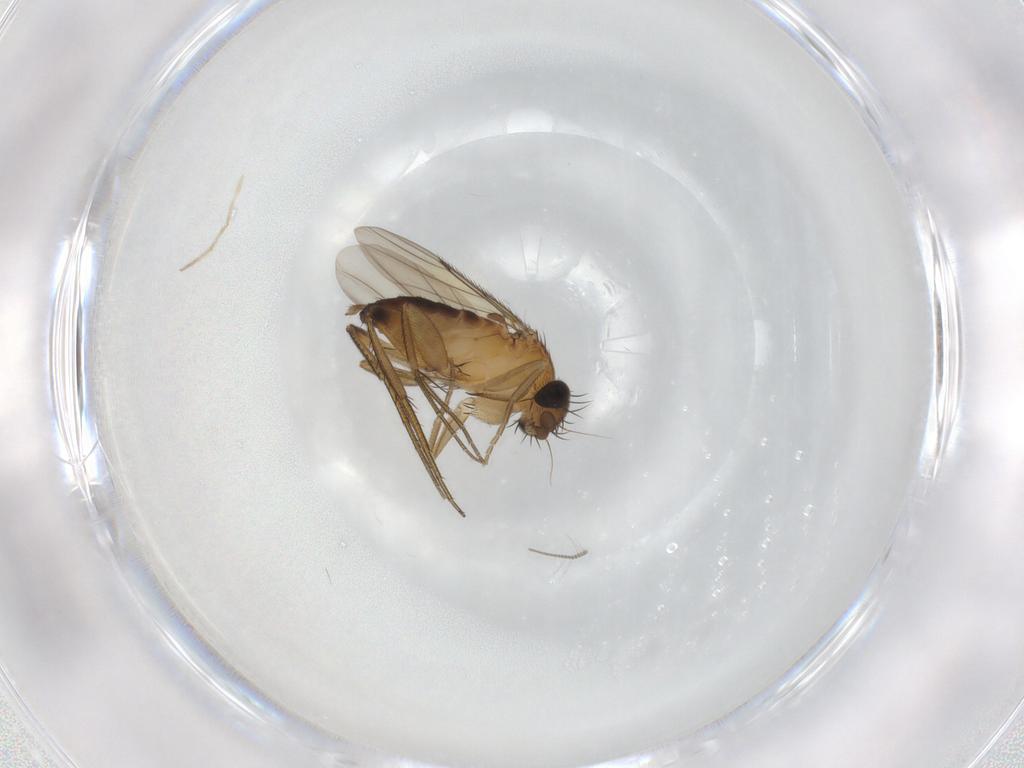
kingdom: Animalia
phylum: Arthropoda
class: Insecta
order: Diptera
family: Phoridae
